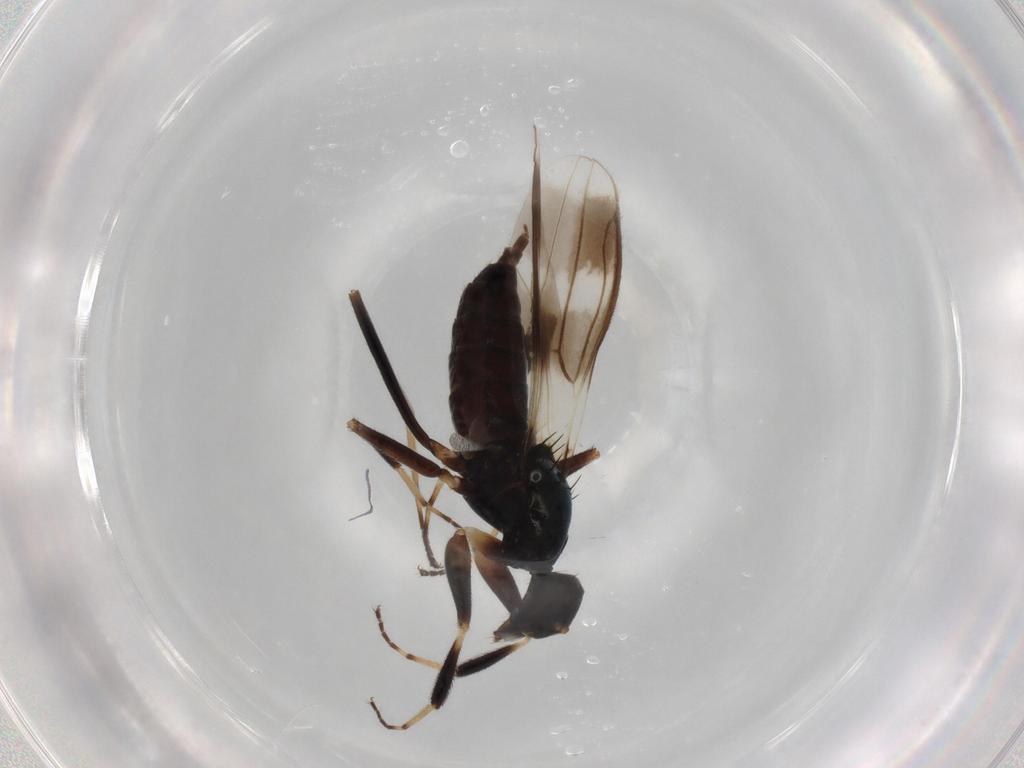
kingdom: Animalia
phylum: Arthropoda
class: Insecta
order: Diptera
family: Hybotidae
